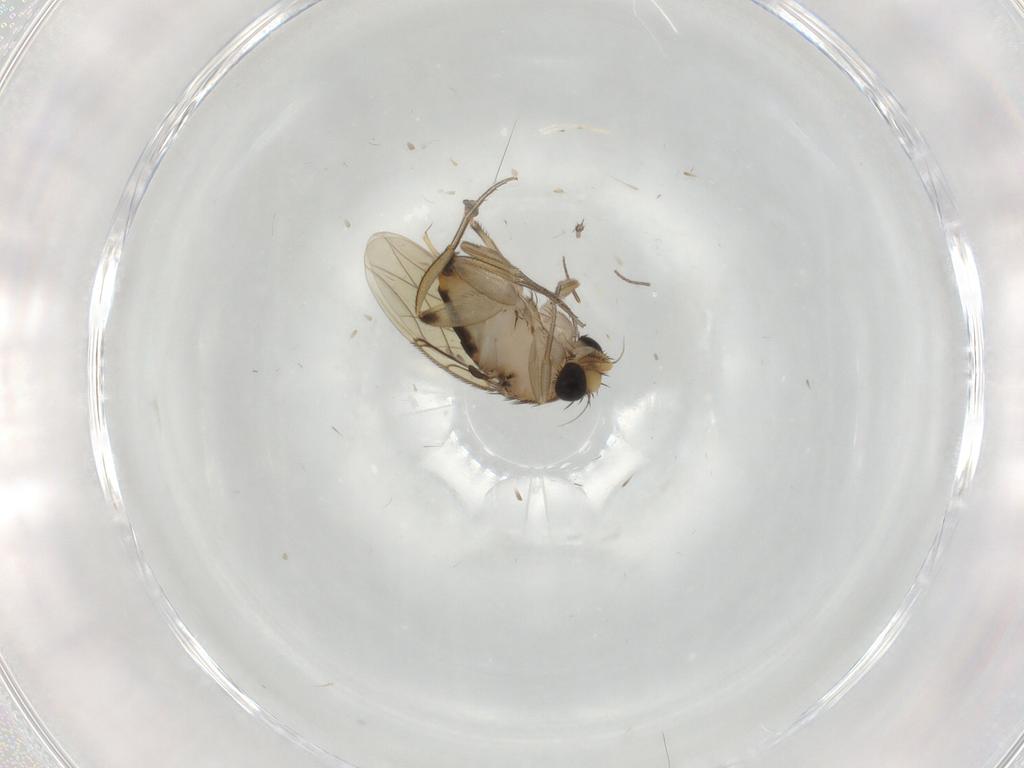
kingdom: Animalia
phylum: Arthropoda
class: Insecta
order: Diptera
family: Phoridae
